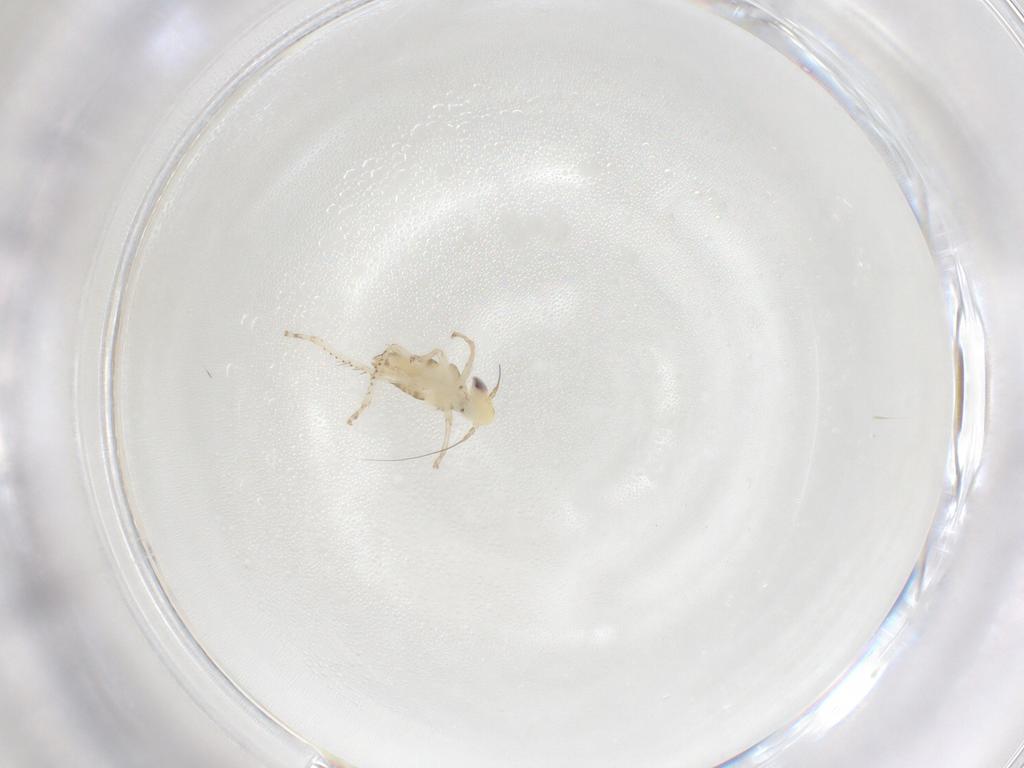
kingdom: Animalia
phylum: Arthropoda
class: Insecta
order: Hemiptera
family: Cicadellidae
